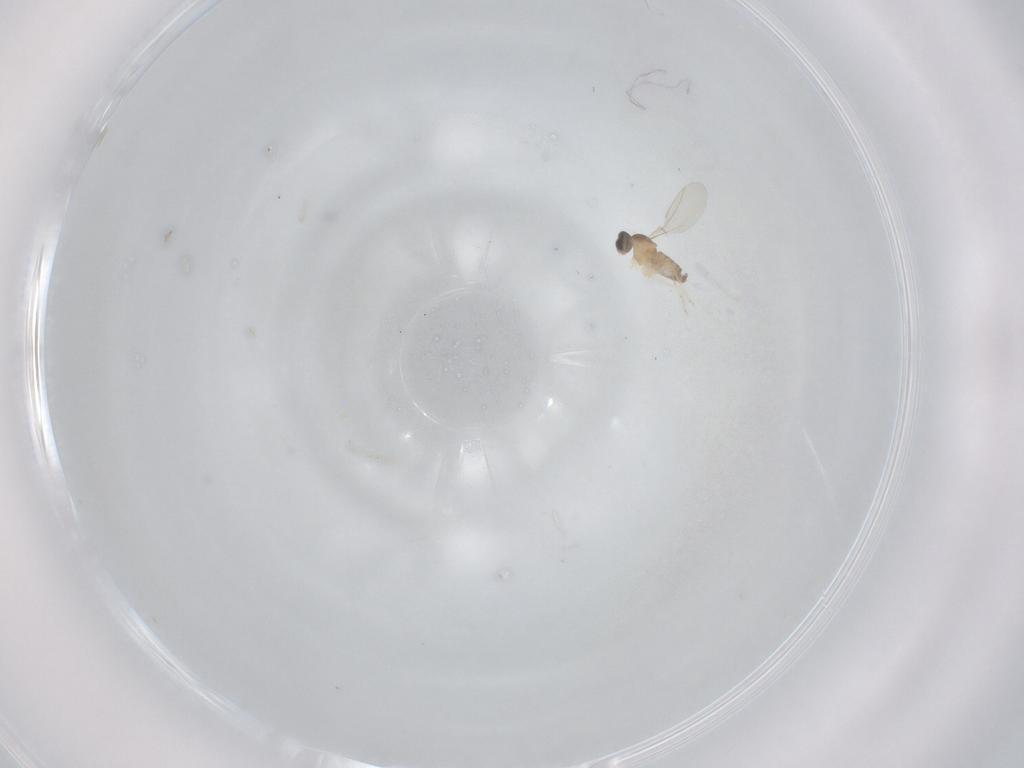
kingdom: Animalia
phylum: Arthropoda
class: Insecta
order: Diptera
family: Cecidomyiidae
